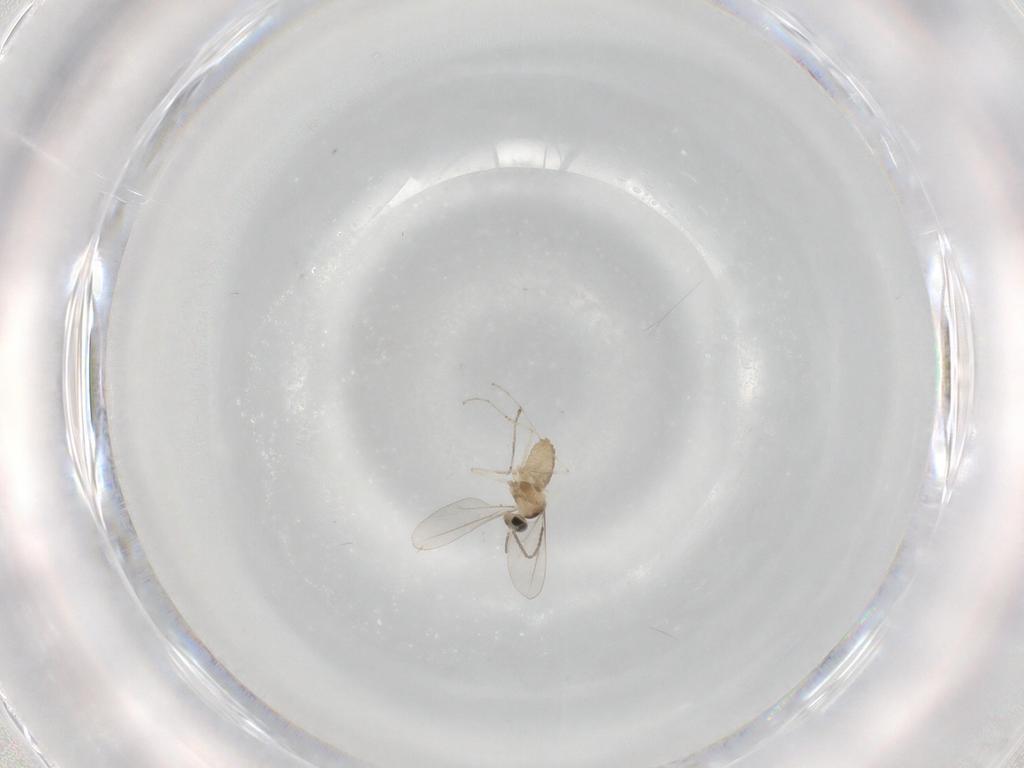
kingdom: Animalia
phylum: Arthropoda
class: Insecta
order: Diptera
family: Cecidomyiidae
